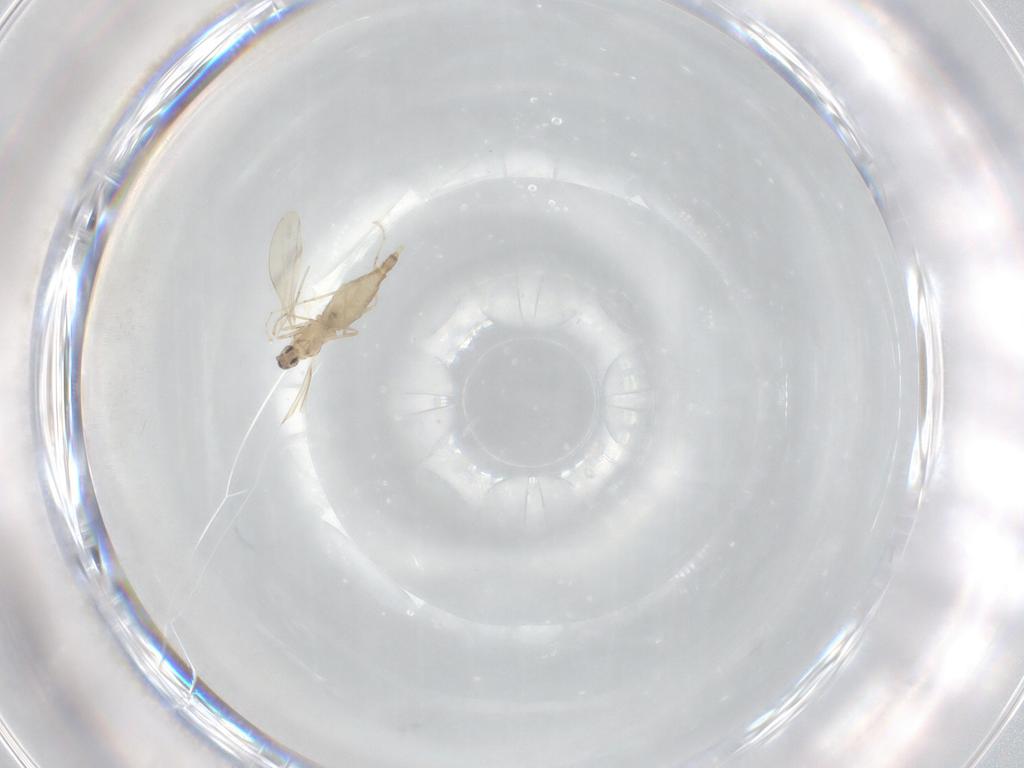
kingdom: Animalia
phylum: Arthropoda
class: Insecta
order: Diptera
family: Cecidomyiidae
